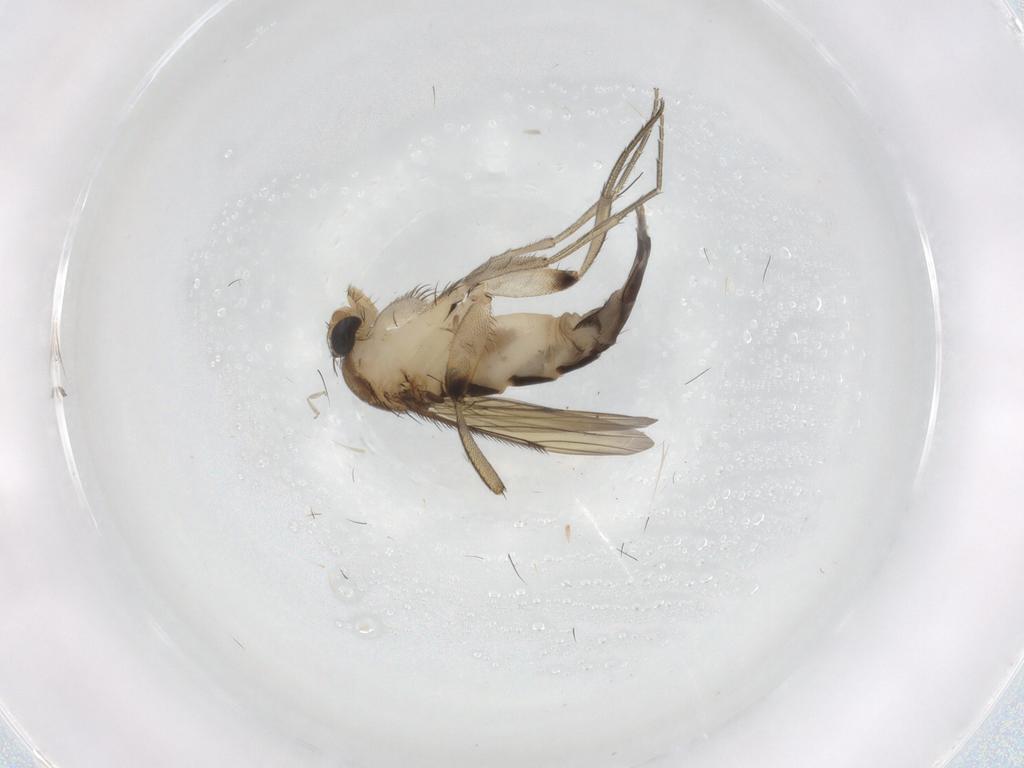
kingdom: Animalia
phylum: Arthropoda
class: Insecta
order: Diptera
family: Phoridae
